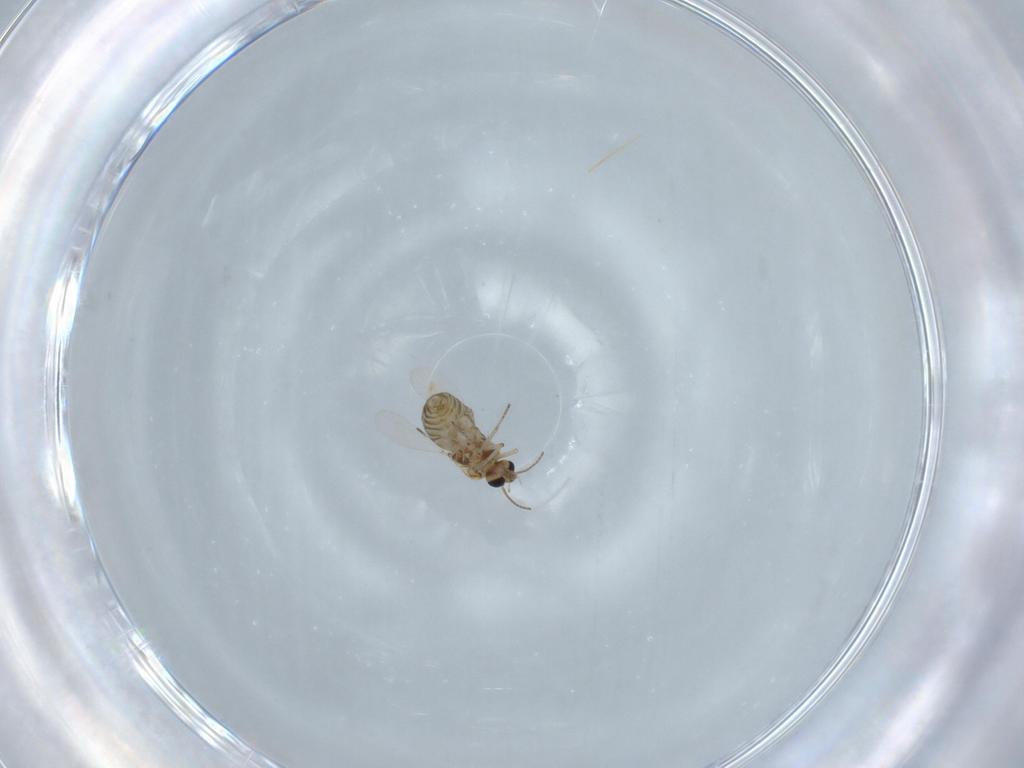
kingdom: Animalia
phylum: Arthropoda
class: Insecta
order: Diptera
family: Ceratopogonidae
